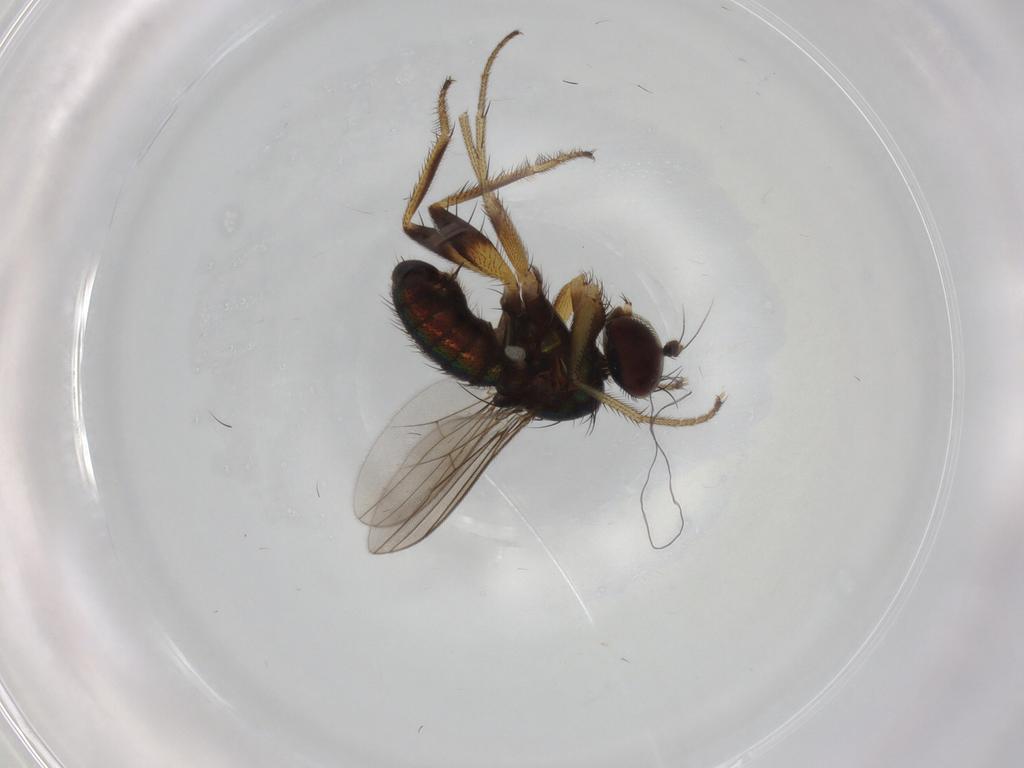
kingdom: Animalia
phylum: Arthropoda
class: Insecta
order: Diptera
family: Dolichopodidae
